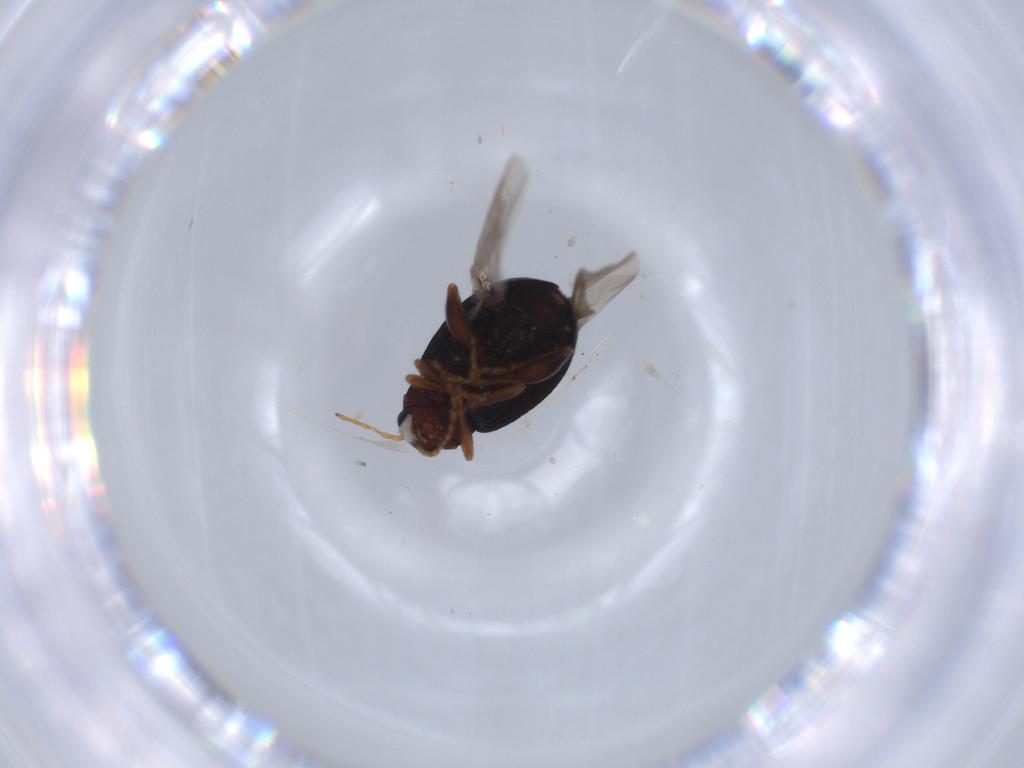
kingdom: Animalia
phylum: Arthropoda
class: Insecta
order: Coleoptera
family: Chrysomelidae
